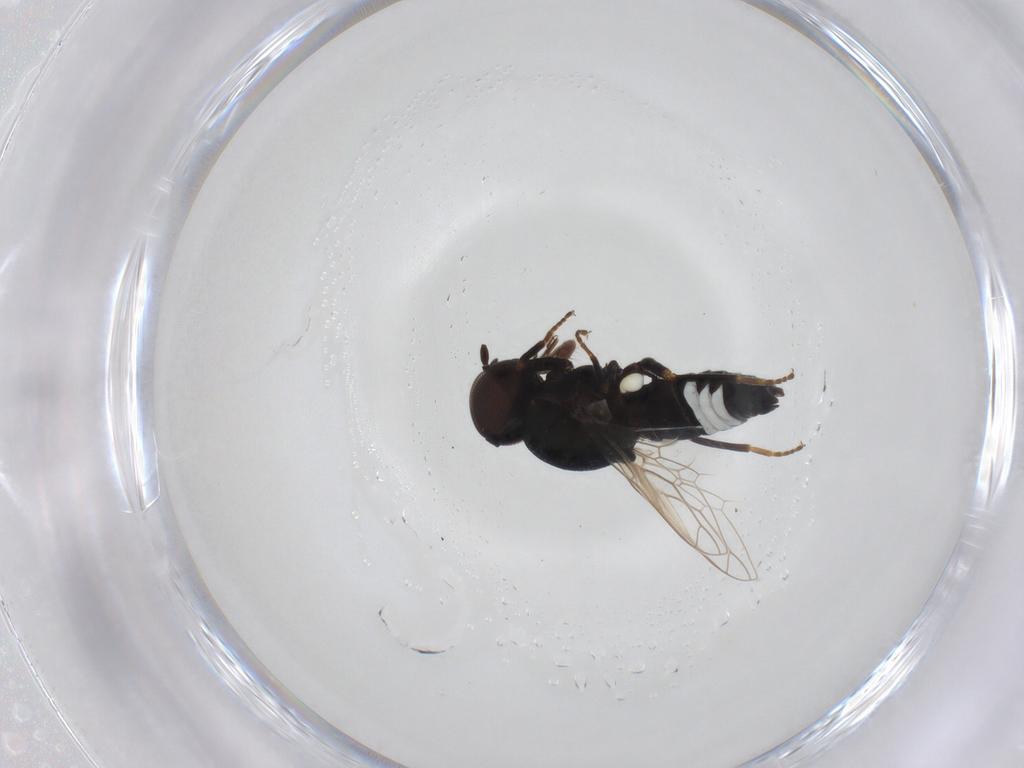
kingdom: Animalia
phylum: Arthropoda
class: Insecta
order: Diptera
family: Scenopinidae
